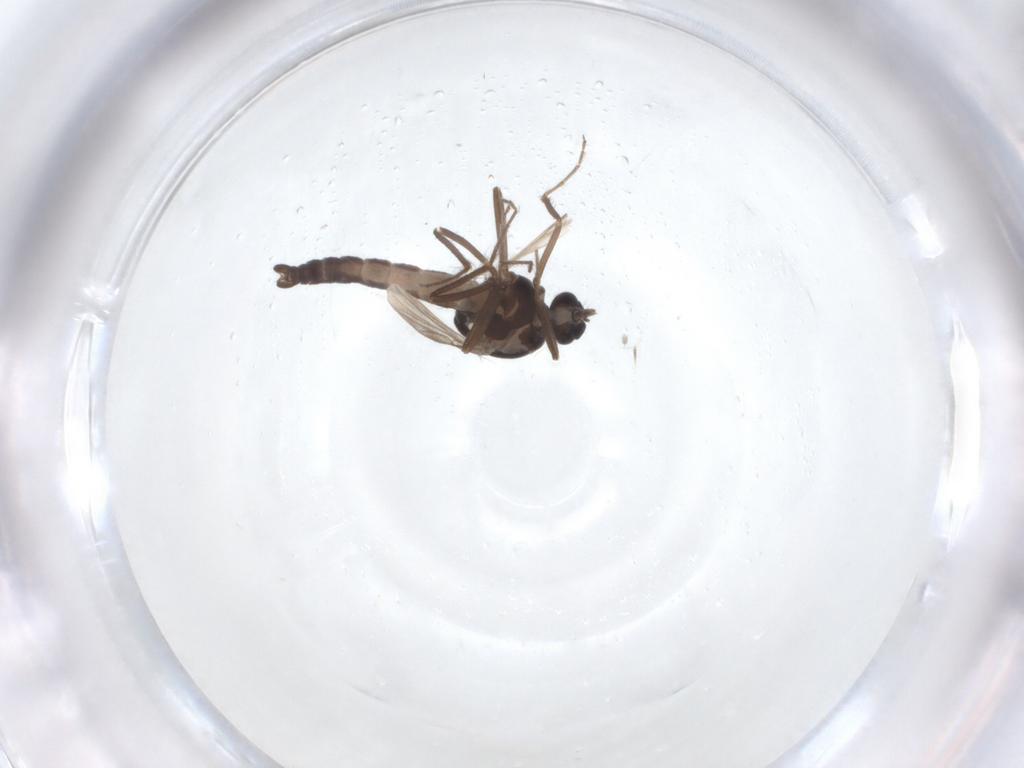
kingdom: Animalia
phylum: Arthropoda
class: Insecta
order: Diptera
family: Ceratopogonidae
